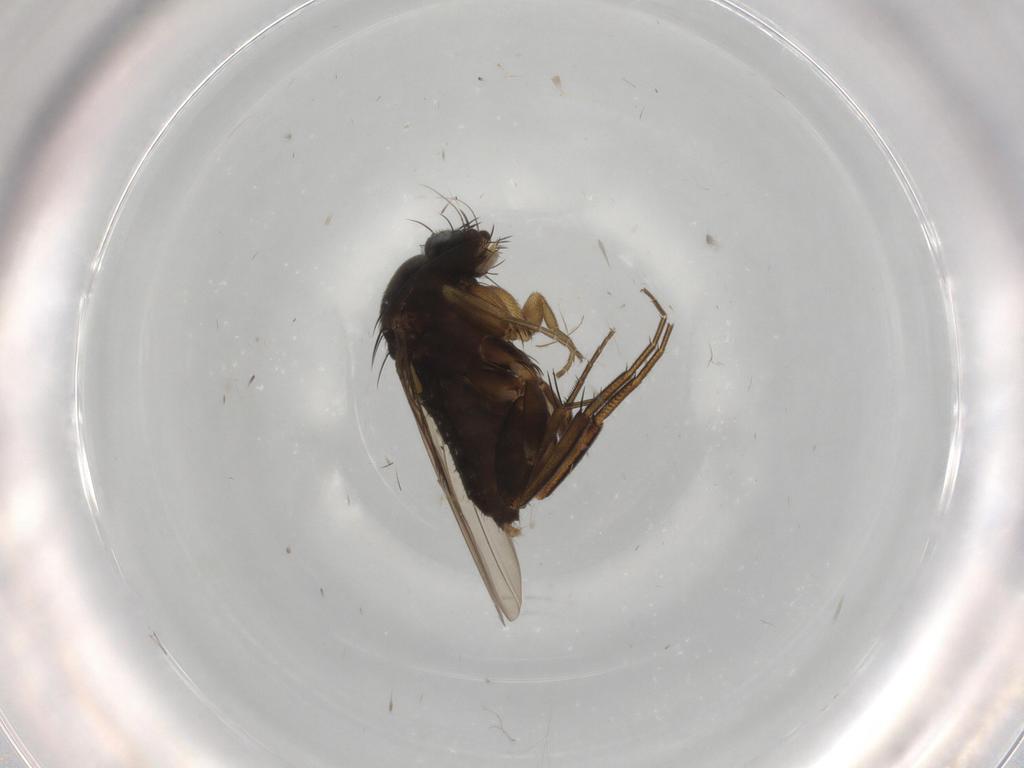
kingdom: Animalia
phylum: Arthropoda
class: Insecta
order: Diptera
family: Phoridae
